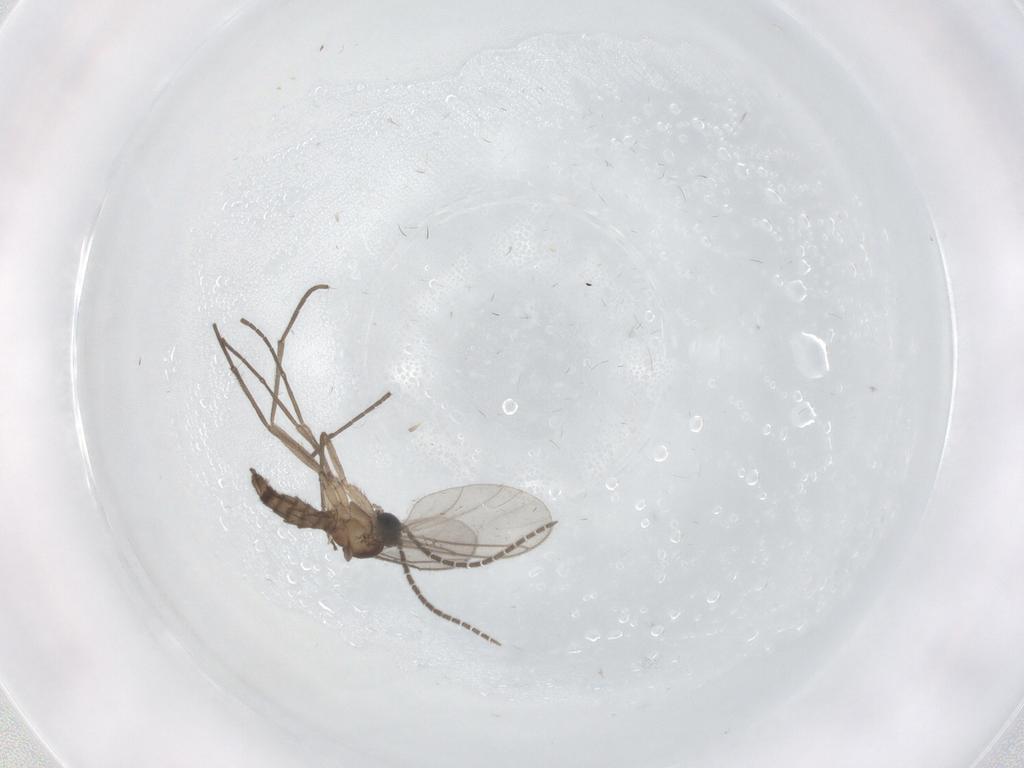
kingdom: Animalia
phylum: Arthropoda
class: Insecta
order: Diptera
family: Sciaridae
